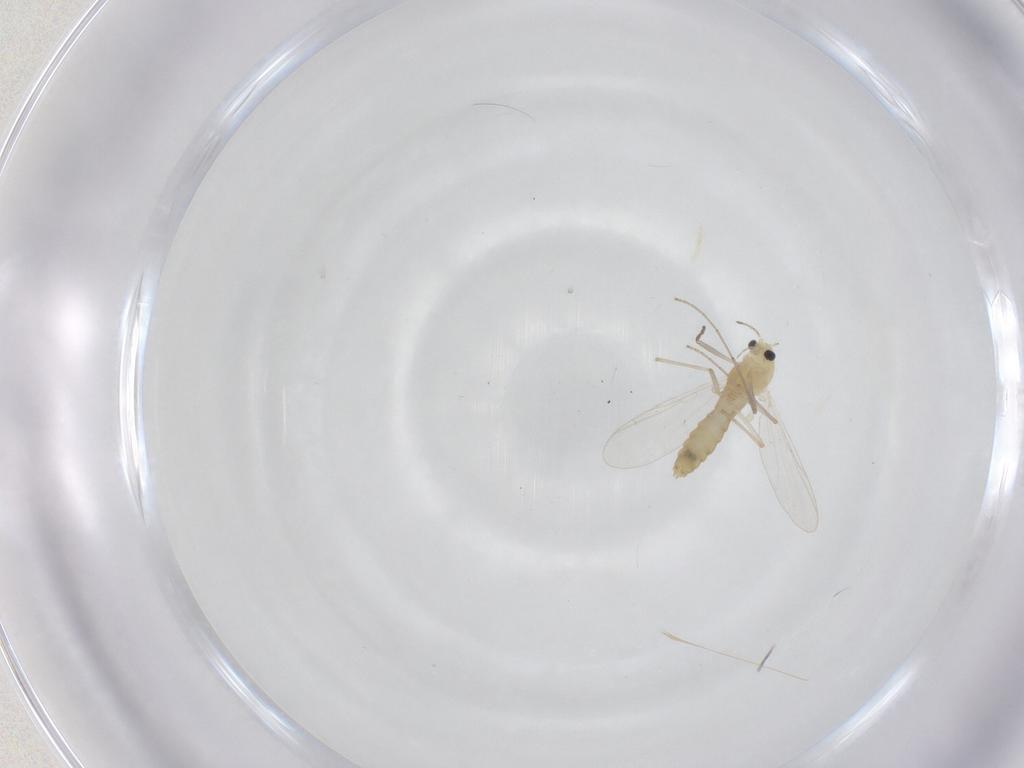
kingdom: Animalia
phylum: Arthropoda
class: Insecta
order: Diptera
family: Chironomidae
